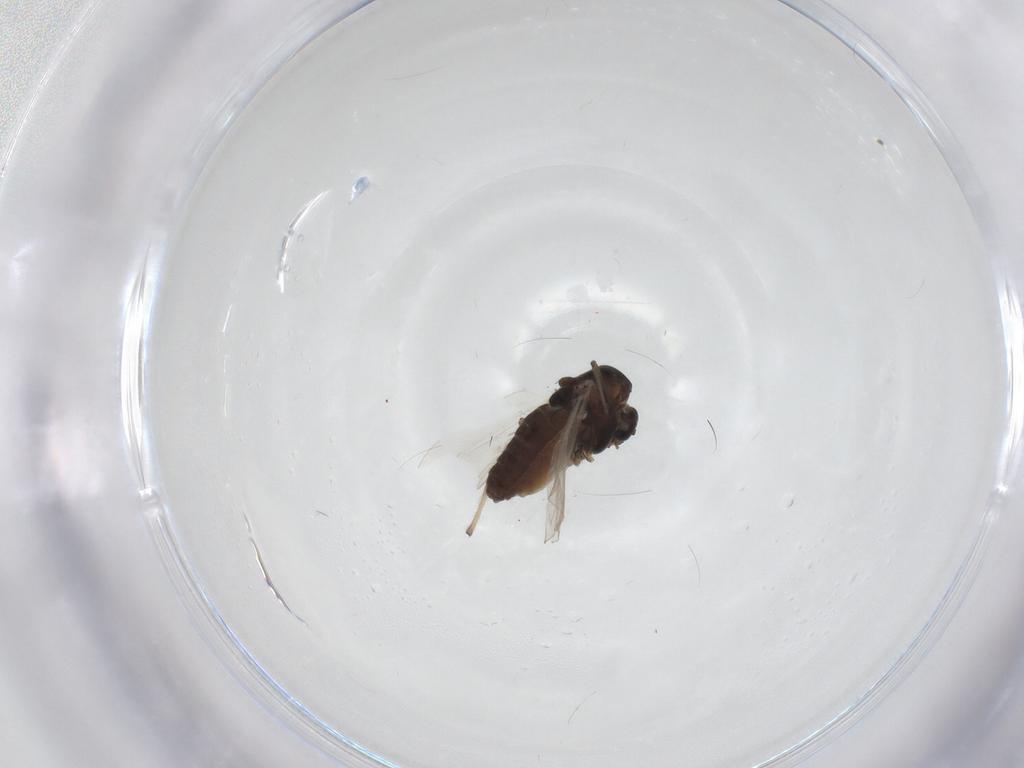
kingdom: Animalia
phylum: Arthropoda
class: Insecta
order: Diptera
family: Chironomidae
